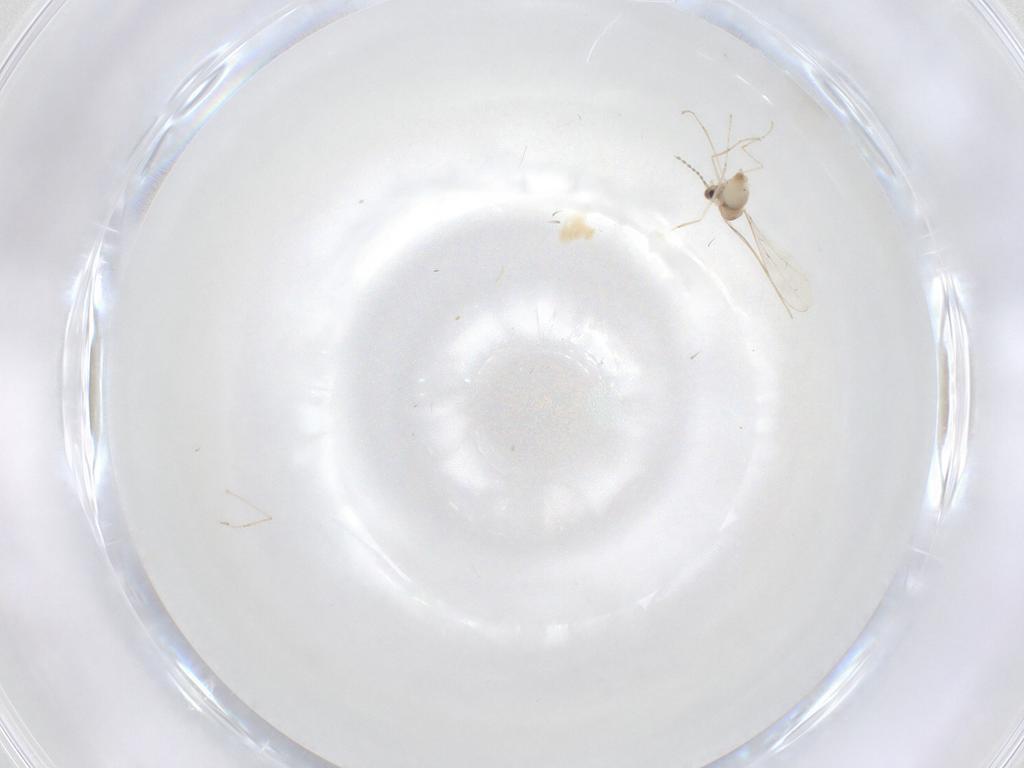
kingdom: Animalia
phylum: Arthropoda
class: Insecta
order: Diptera
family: Cecidomyiidae
